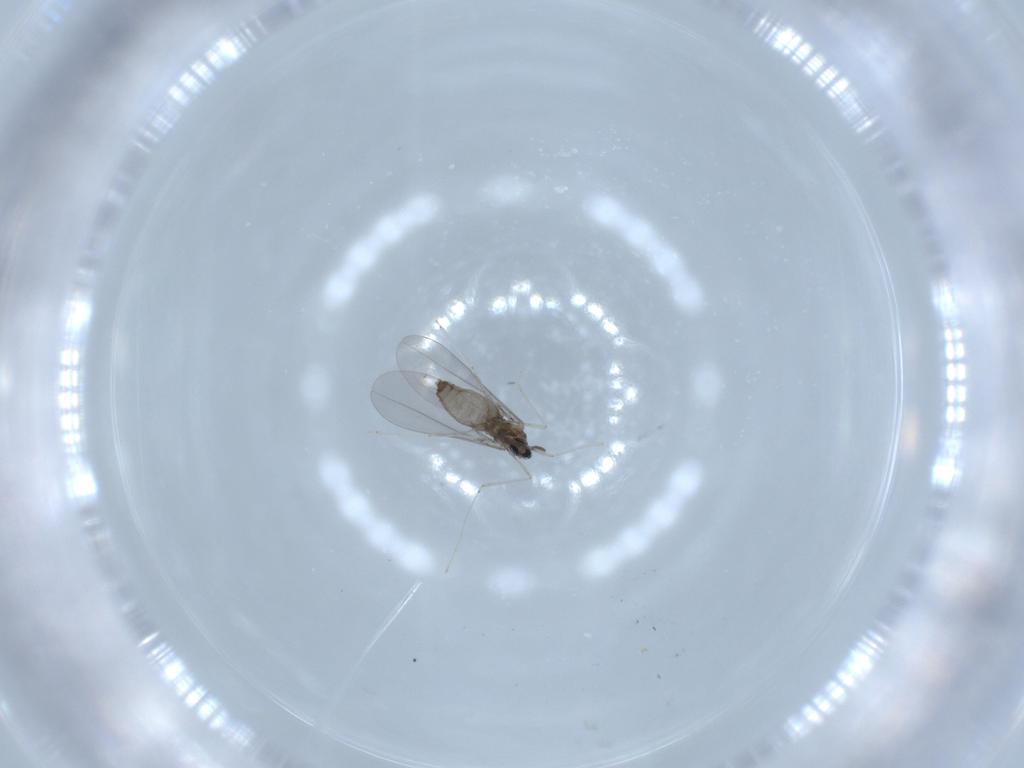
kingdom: Animalia
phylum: Arthropoda
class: Insecta
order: Diptera
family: Cecidomyiidae
